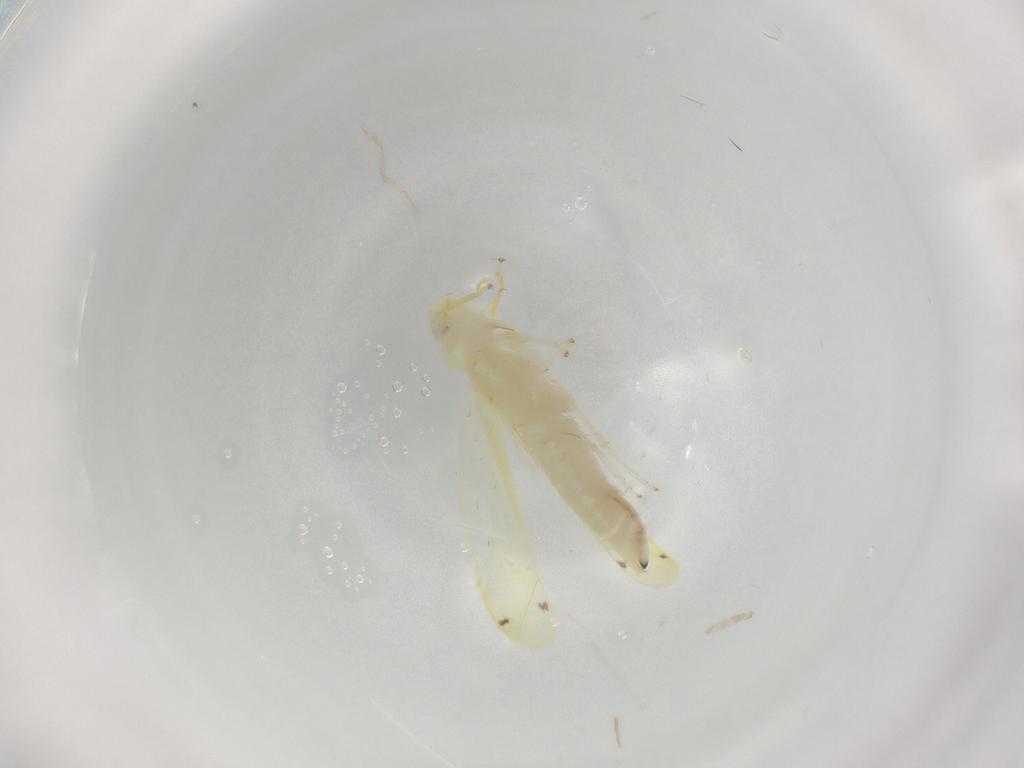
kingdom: Animalia
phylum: Arthropoda
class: Insecta
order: Hemiptera
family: Cicadellidae
